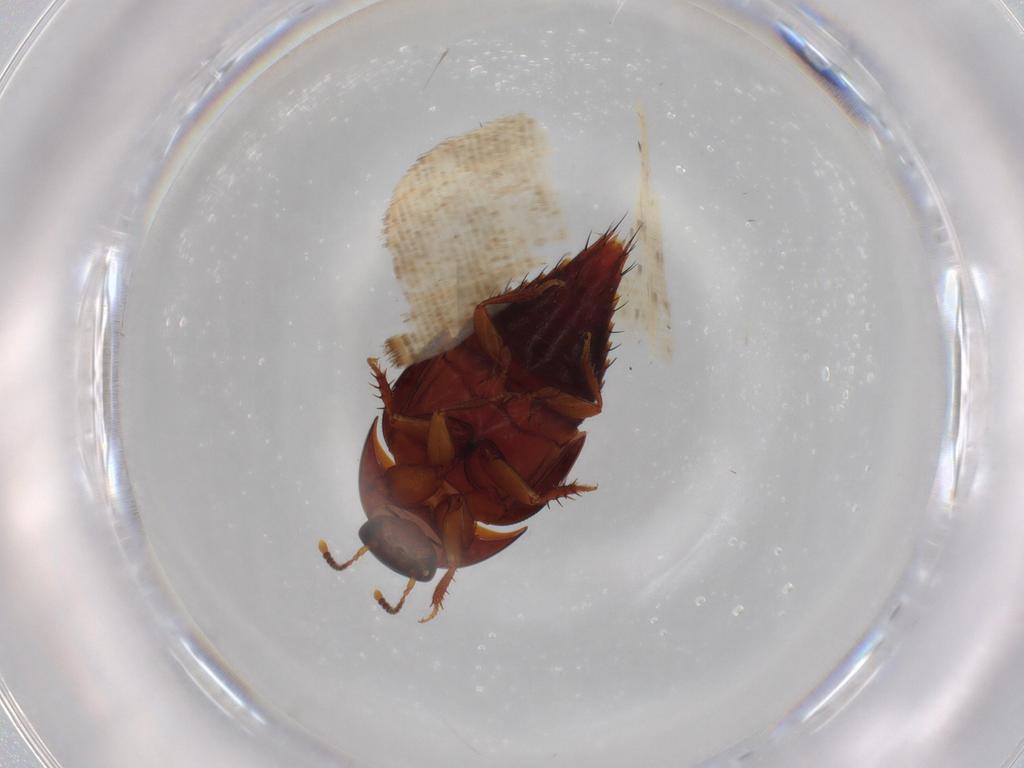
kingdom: Animalia
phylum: Arthropoda
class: Insecta
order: Coleoptera
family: Staphylinidae
